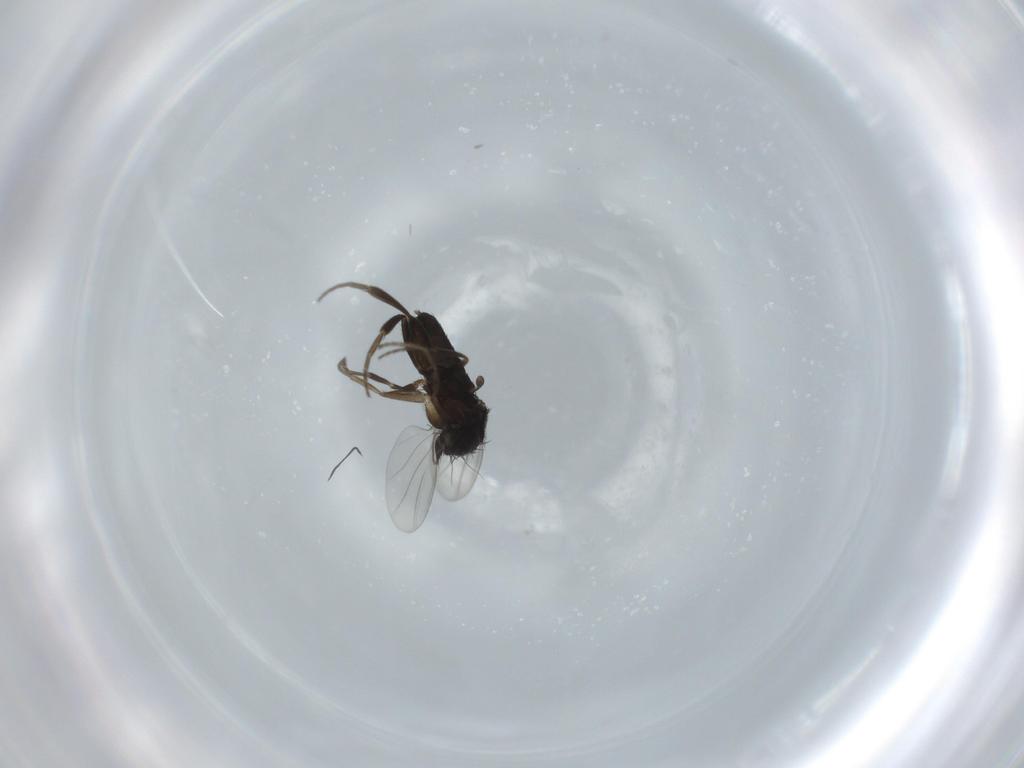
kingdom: Animalia
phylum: Arthropoda
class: Insecta
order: Diptera
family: Phoridae
